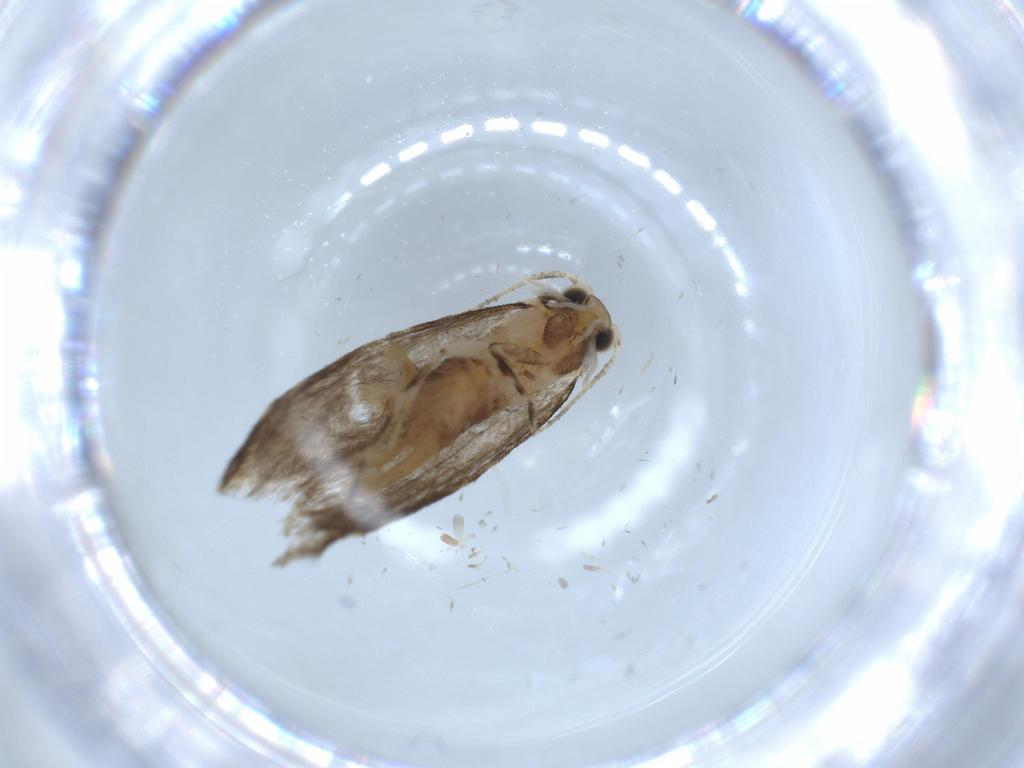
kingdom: Animalia
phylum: Arthropoda
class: Insecta
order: Lepidoptera
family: Tineidae
